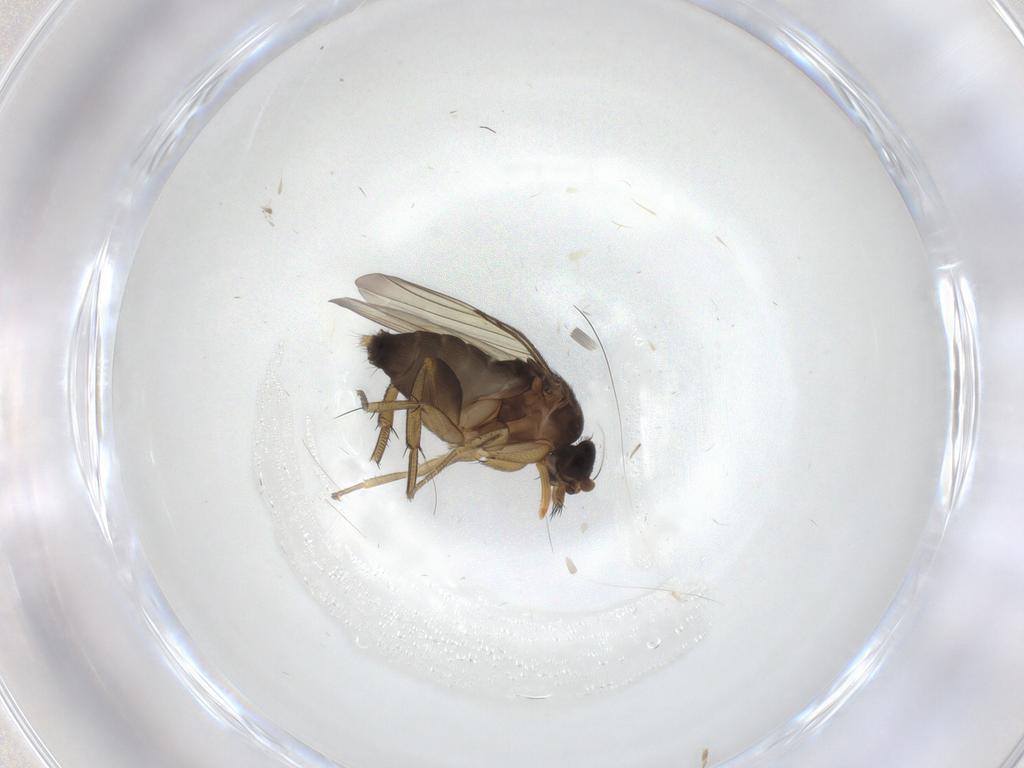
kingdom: Animalia
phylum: Arthropoda
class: Insecta
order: Diptera
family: Phoridae
